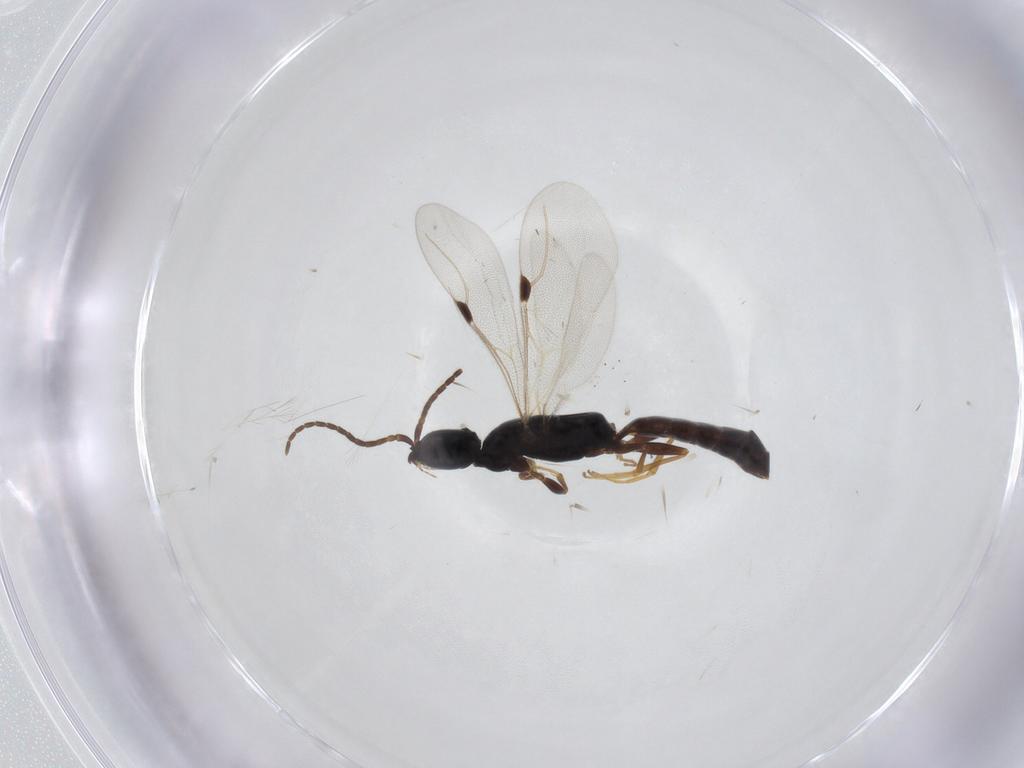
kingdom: Animalia
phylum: Arthropoda
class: Insecta
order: Hymenoptera
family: Bethylidae
